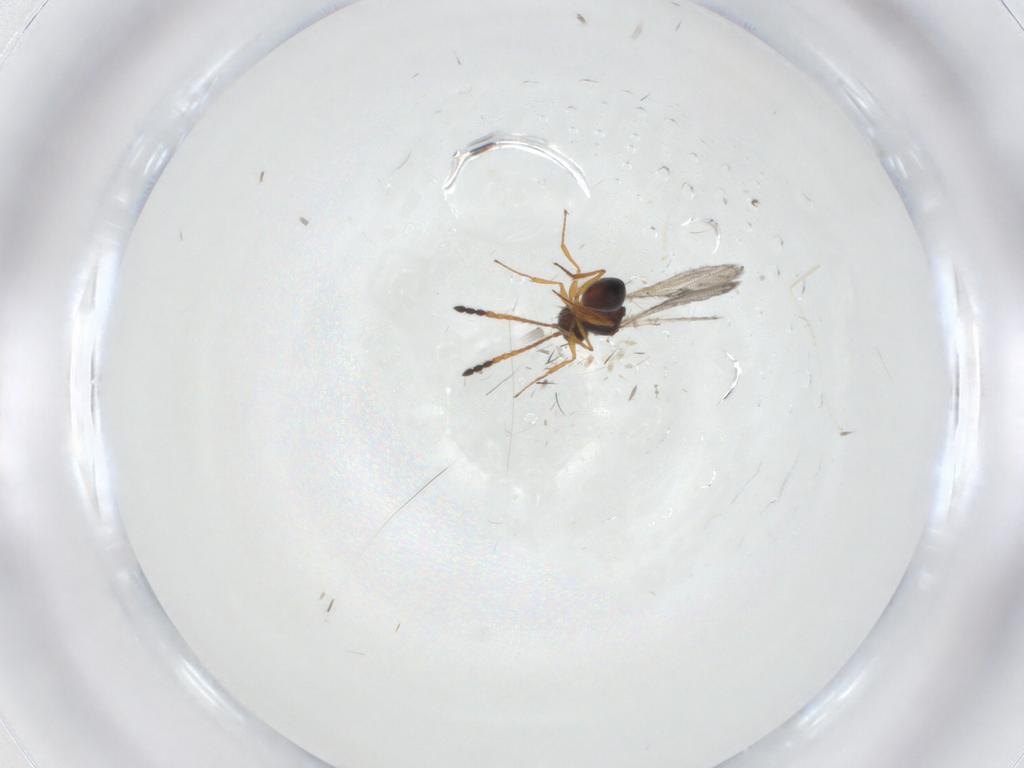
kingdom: Animalia
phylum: Arthropoda
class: Insecta
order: Hymenoptera
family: Figitidae
